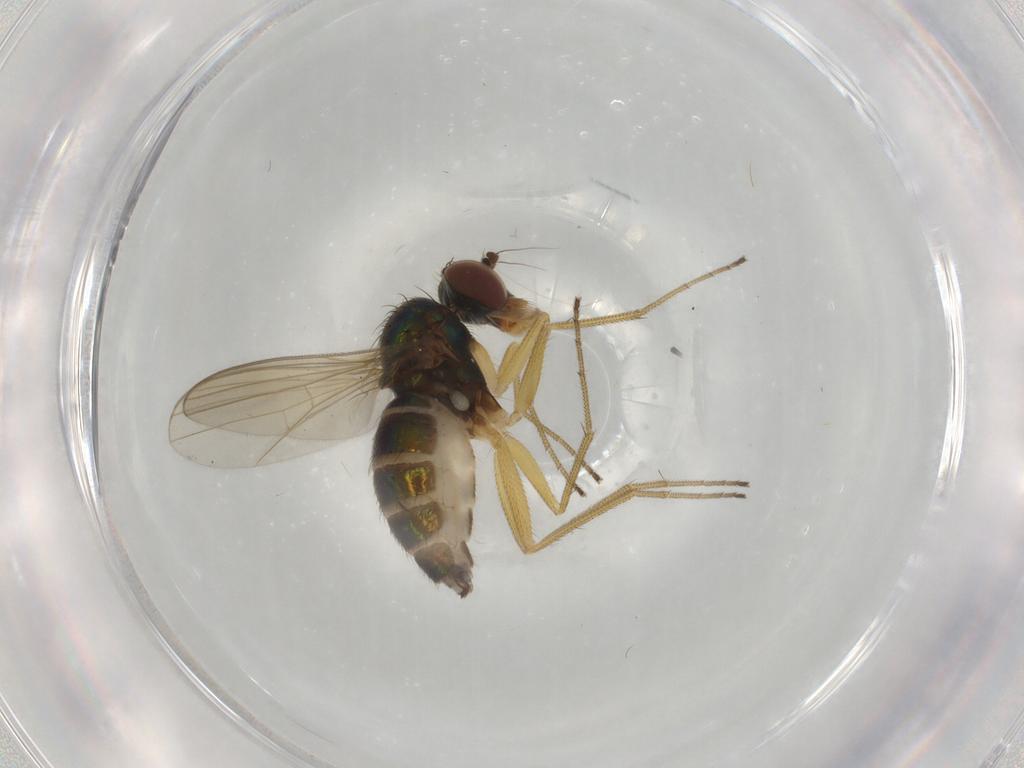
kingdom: Animalia
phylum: Arthropoda
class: Insecta
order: Diptera
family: Dolichopodidae
